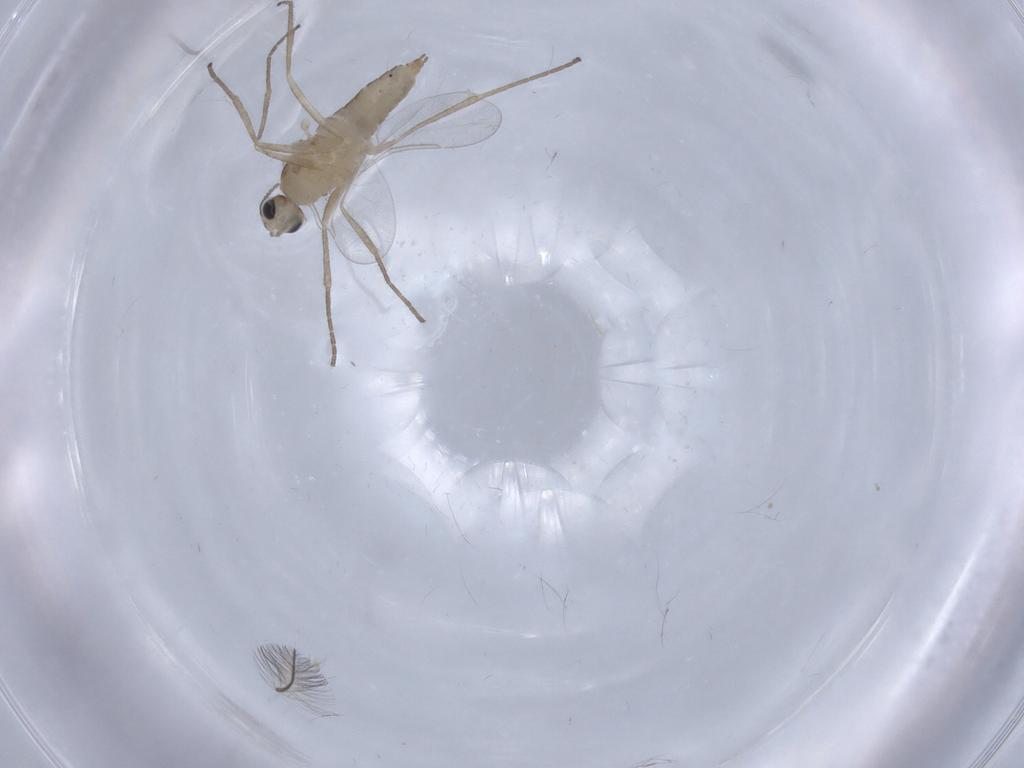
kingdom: Animalia
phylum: Arthropoda
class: Insecta
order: Diptera
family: Cecidomyiidae
